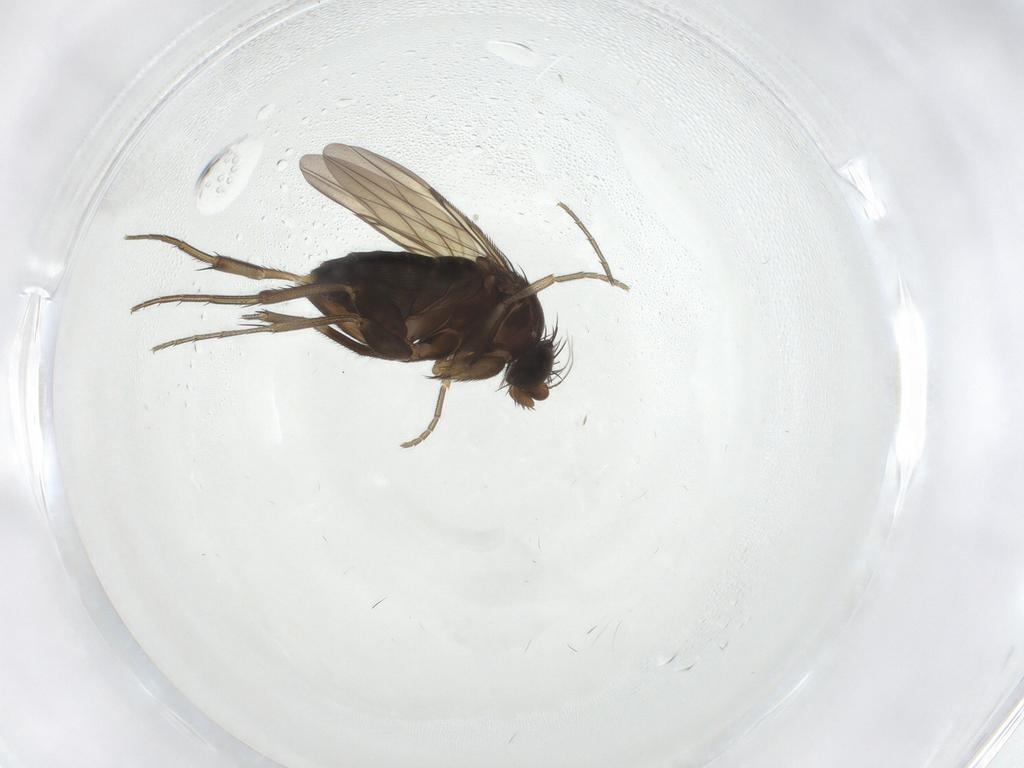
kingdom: Animalia
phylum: Arthropoda
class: Insecta
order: Diptera
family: Phoridae
